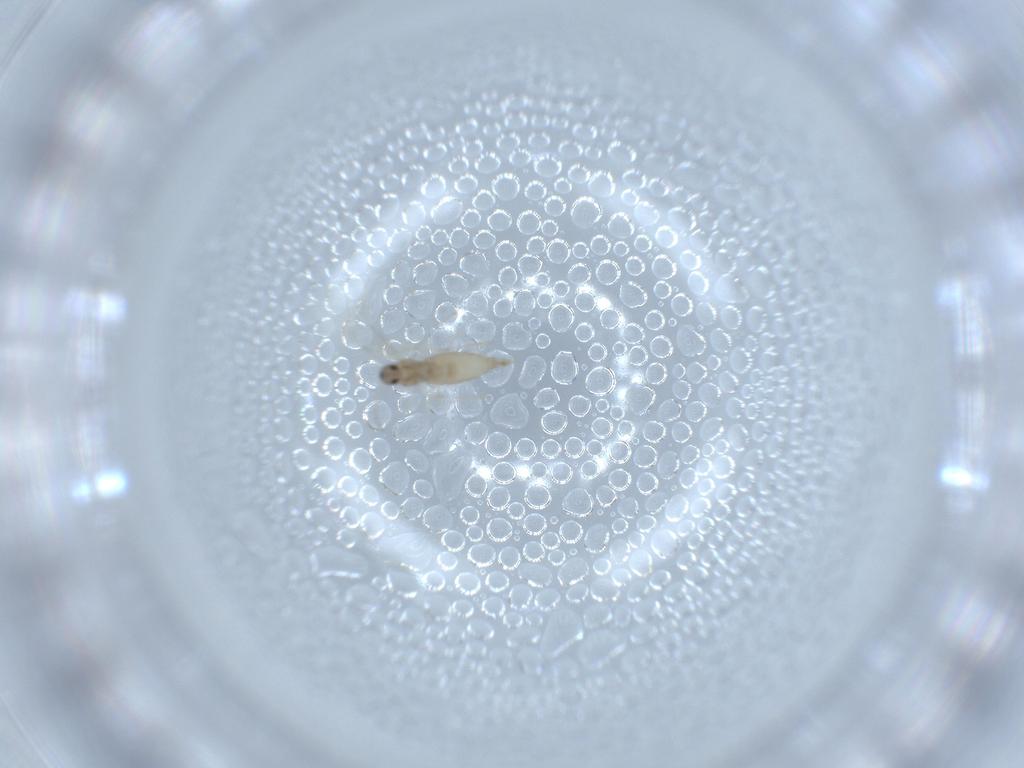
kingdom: Animalia
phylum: Arthropoda
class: Insecta
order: Diptera
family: Cecidomyiidae
